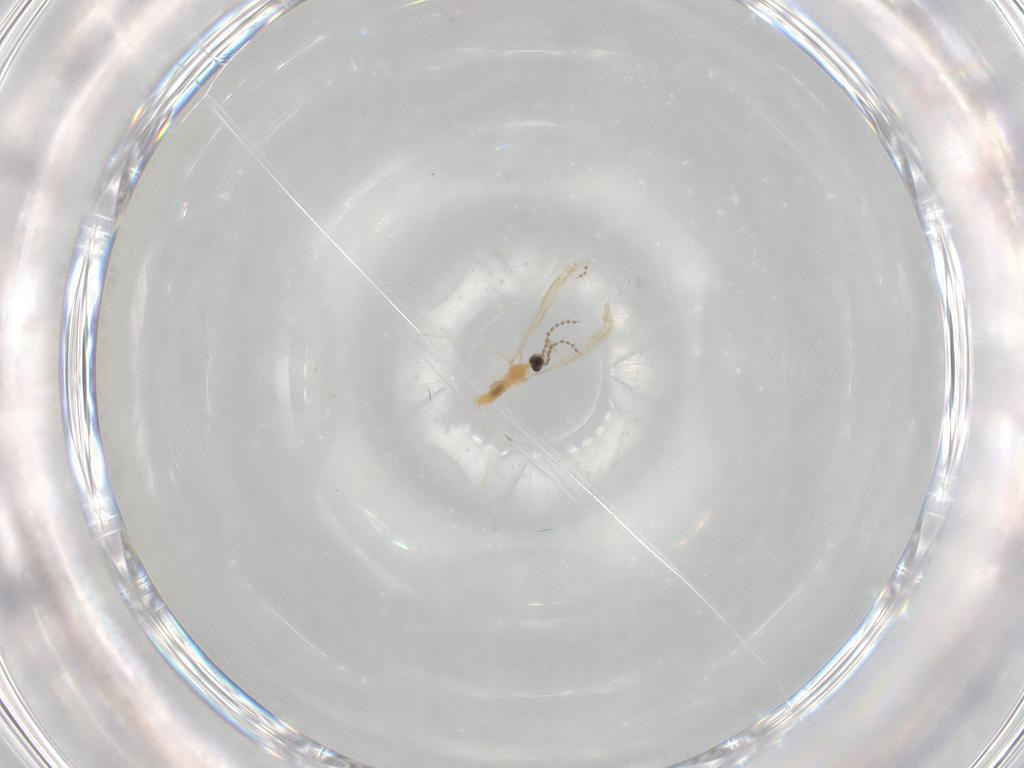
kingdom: Animalia
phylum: Arthropoda
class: Insecta
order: Diptera
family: Cecidomyiidae
